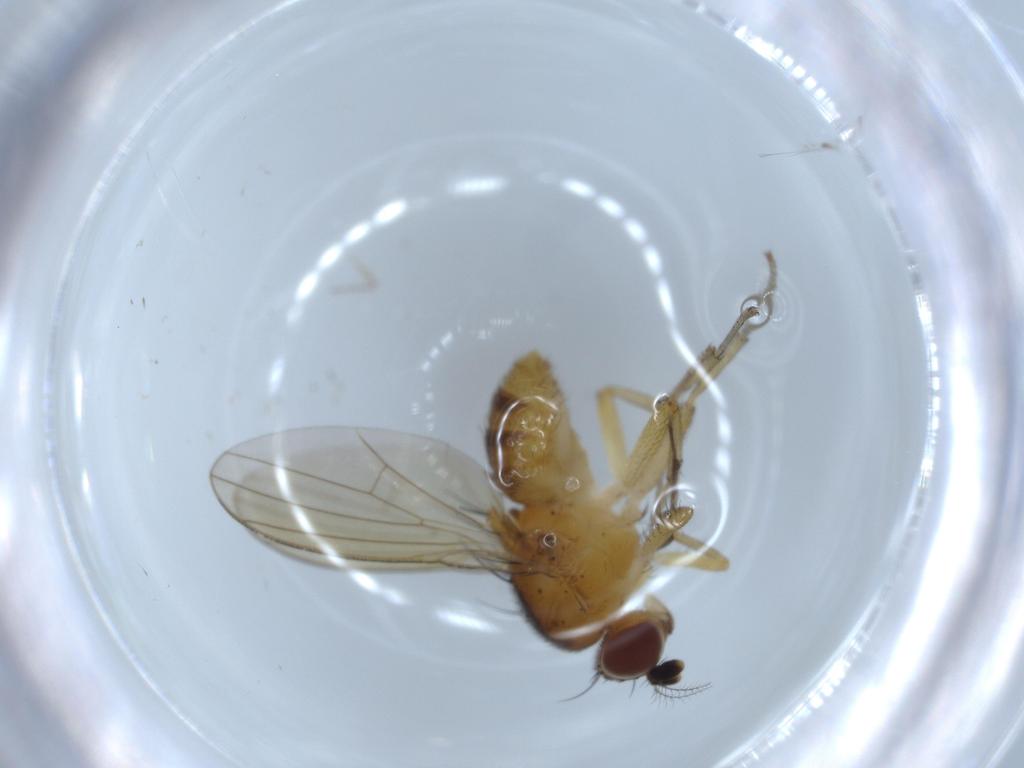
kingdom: Animalia
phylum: Arthropoda
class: Insecta
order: Diptera
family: Lauxaniidae
